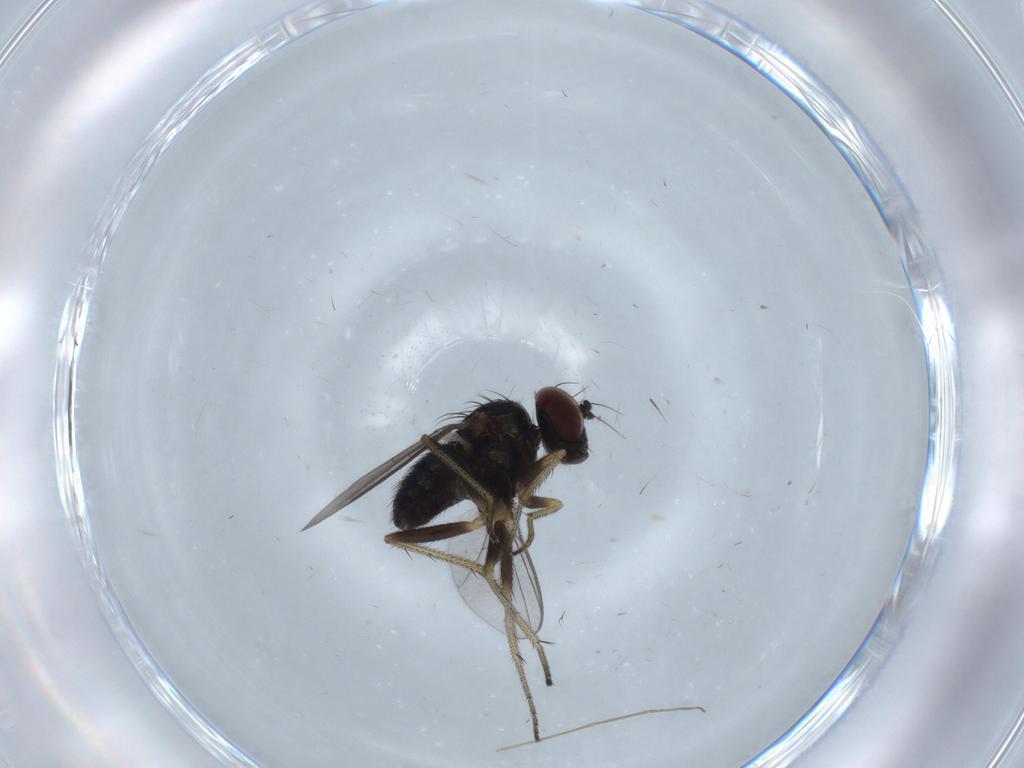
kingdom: Animalia
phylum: Arthropoda
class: Insecta
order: Diptera
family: Dolichopodidae
